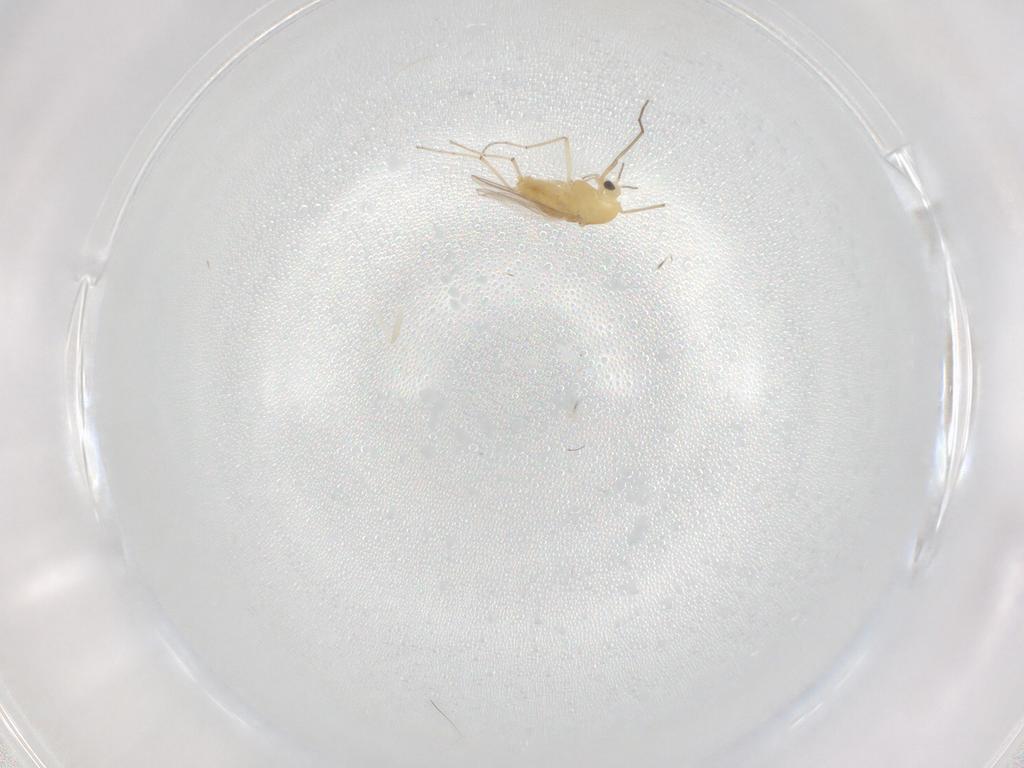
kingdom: Animalia
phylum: Arthropoda
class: Insecta
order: Diptera
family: Chironomidae
